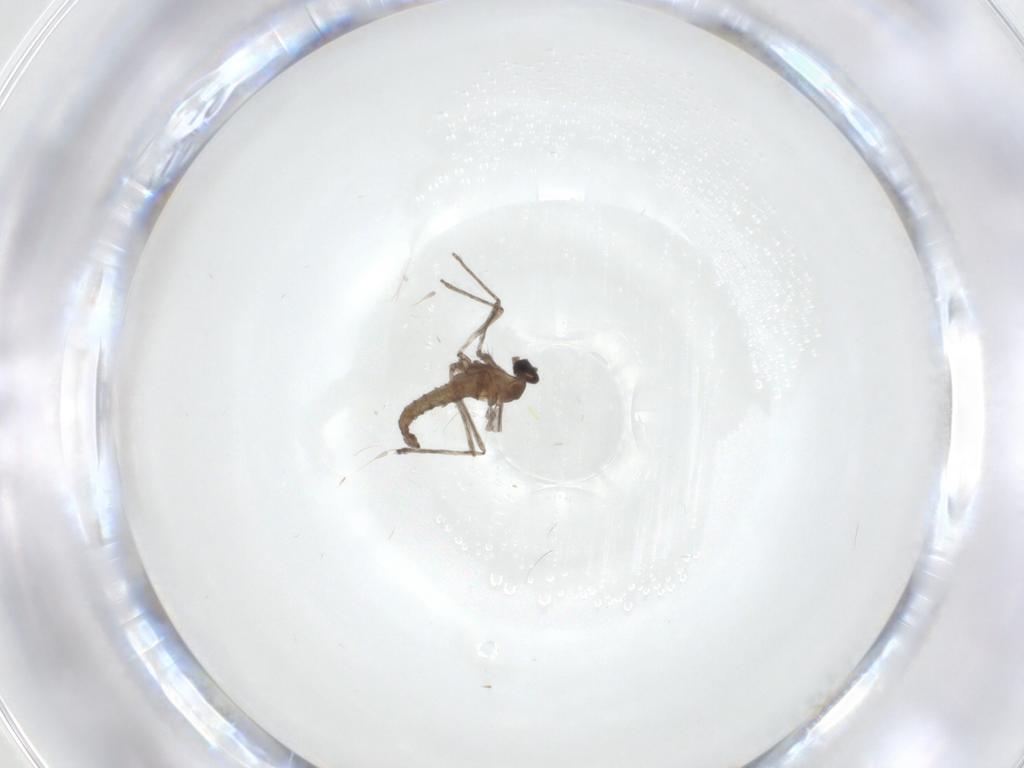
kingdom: Animalia
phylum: Arthropoda
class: Insecta
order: Diptera
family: Cecidomyiidae
